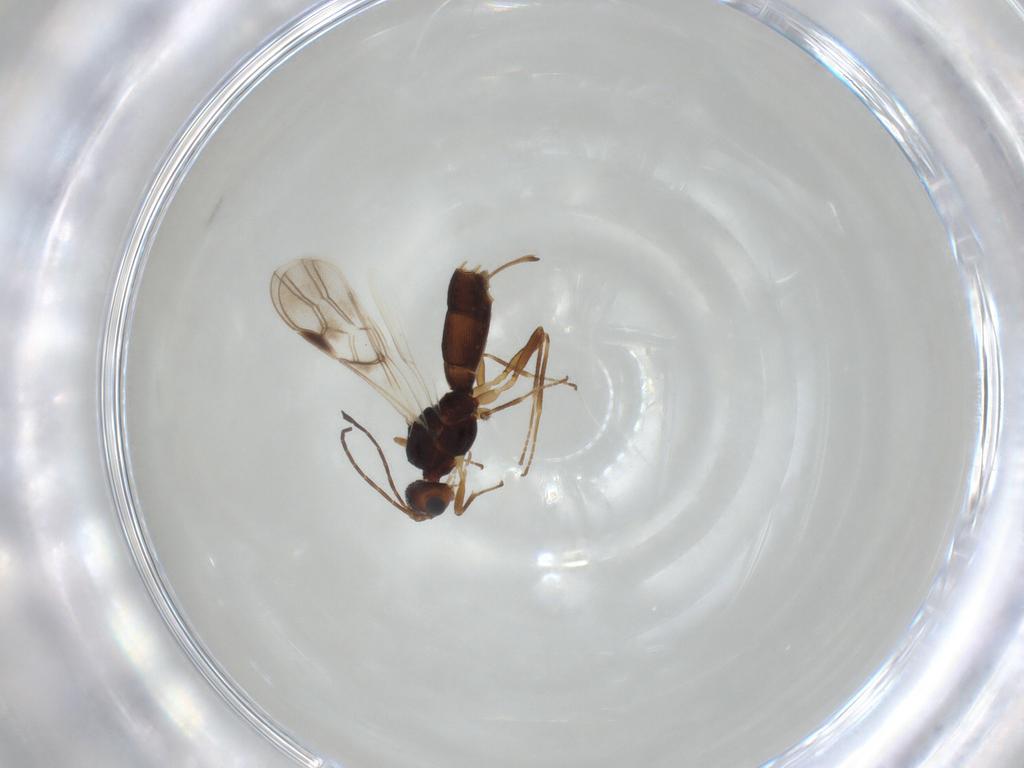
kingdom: Animalia
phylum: Arthropoda
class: Insecta
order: Hymenoptera
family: Braconidae
